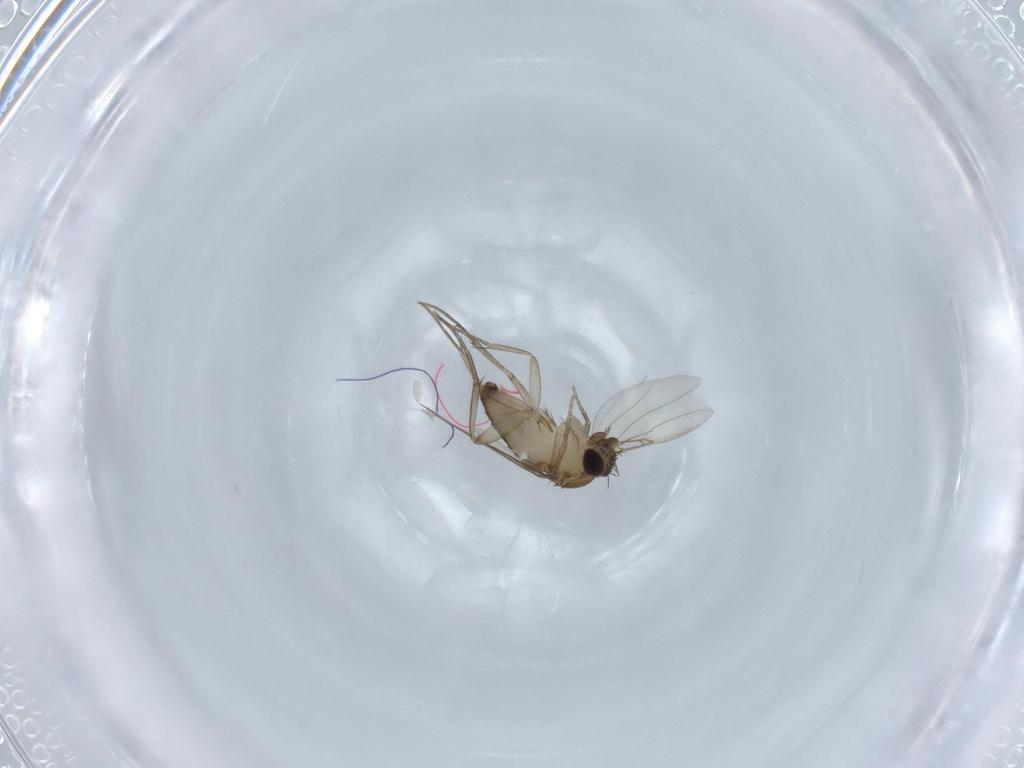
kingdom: Animalia
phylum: Arthropoda
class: Insecta
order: Diptera
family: Phoridae
